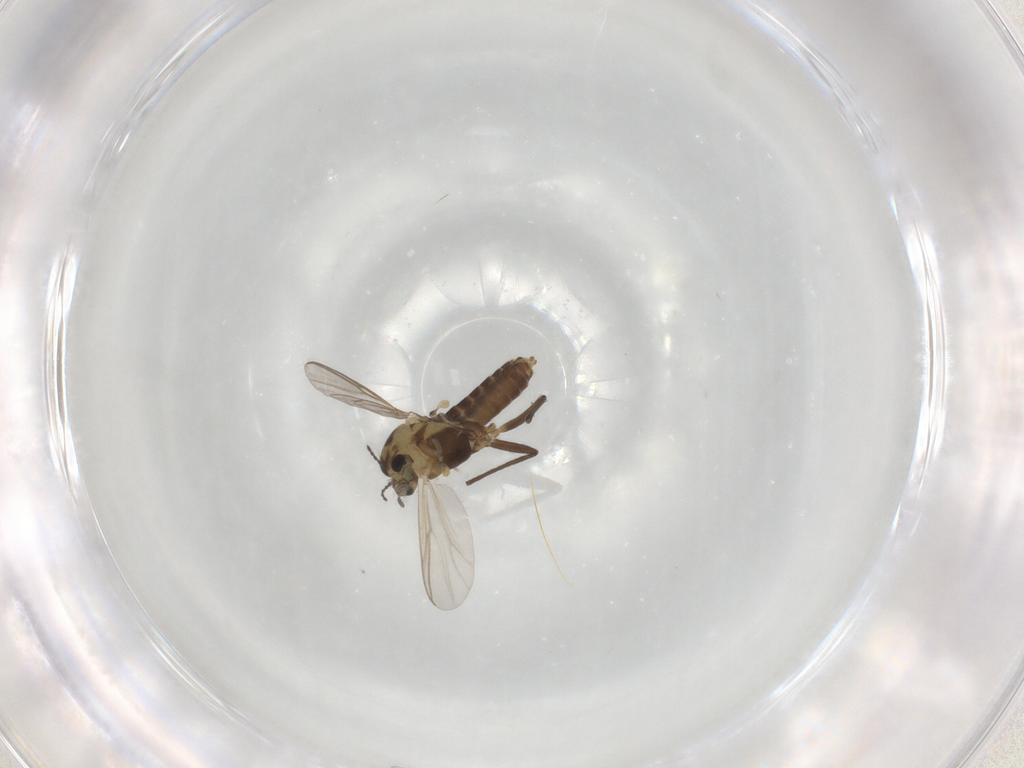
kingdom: Animalia
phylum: Arthropoda
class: Insecta
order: Diptera
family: Chironomidae
